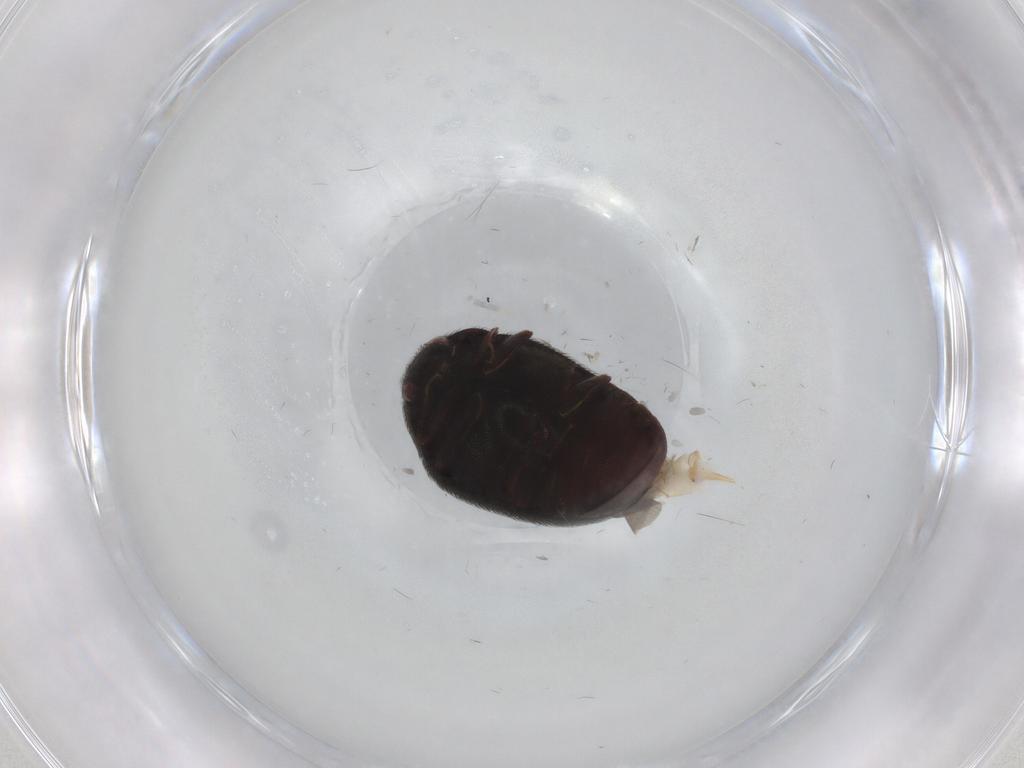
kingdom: Animalia
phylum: Arthropoda
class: Insecta
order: Coleoptera
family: Dermestidae
